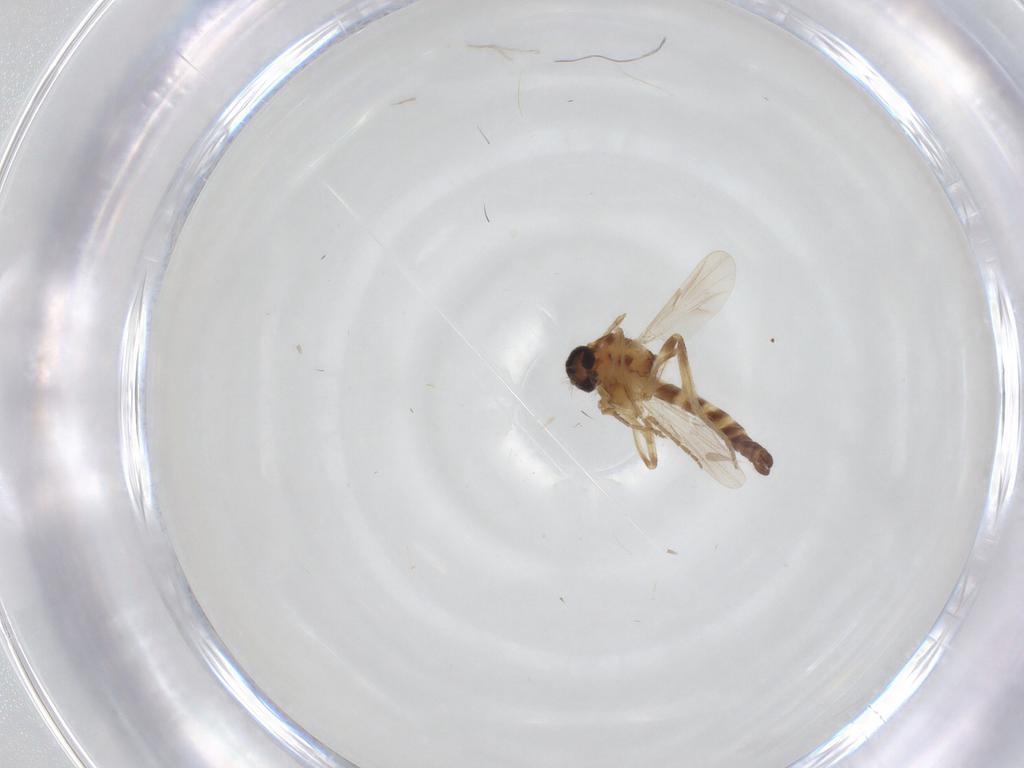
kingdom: Animalia
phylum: Arthropoda
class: Insecta
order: Diptera
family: Ceratopogonidae
